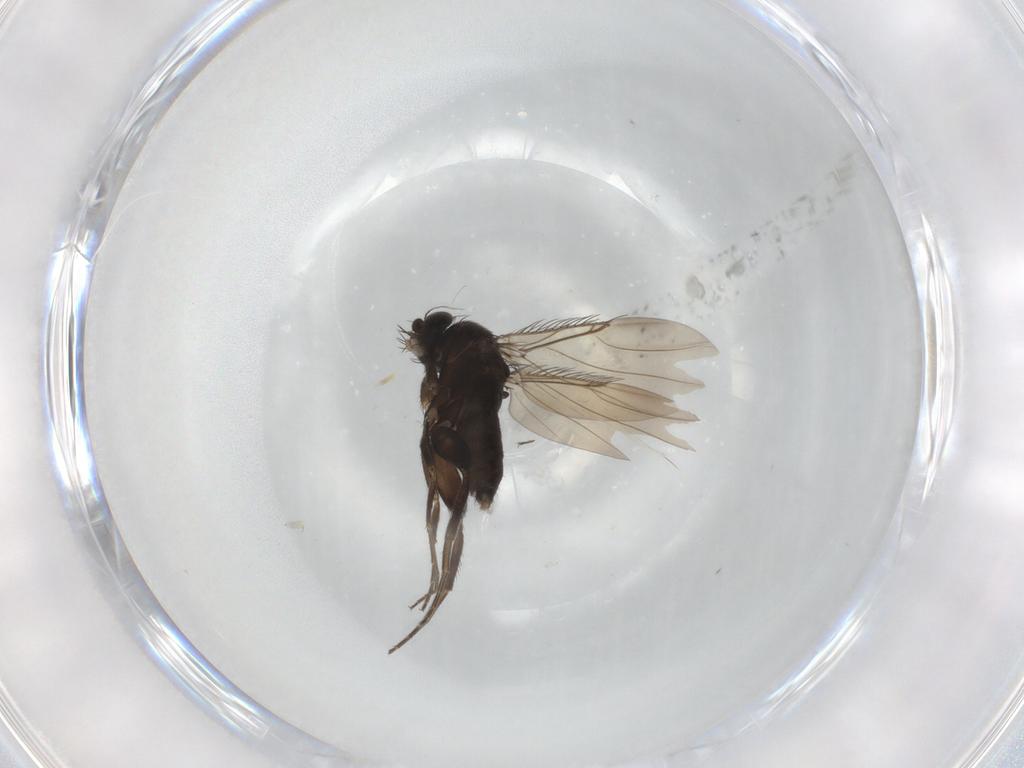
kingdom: Animalia
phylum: Arthropoda
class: Insecta
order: Diptera
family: Phoridae
